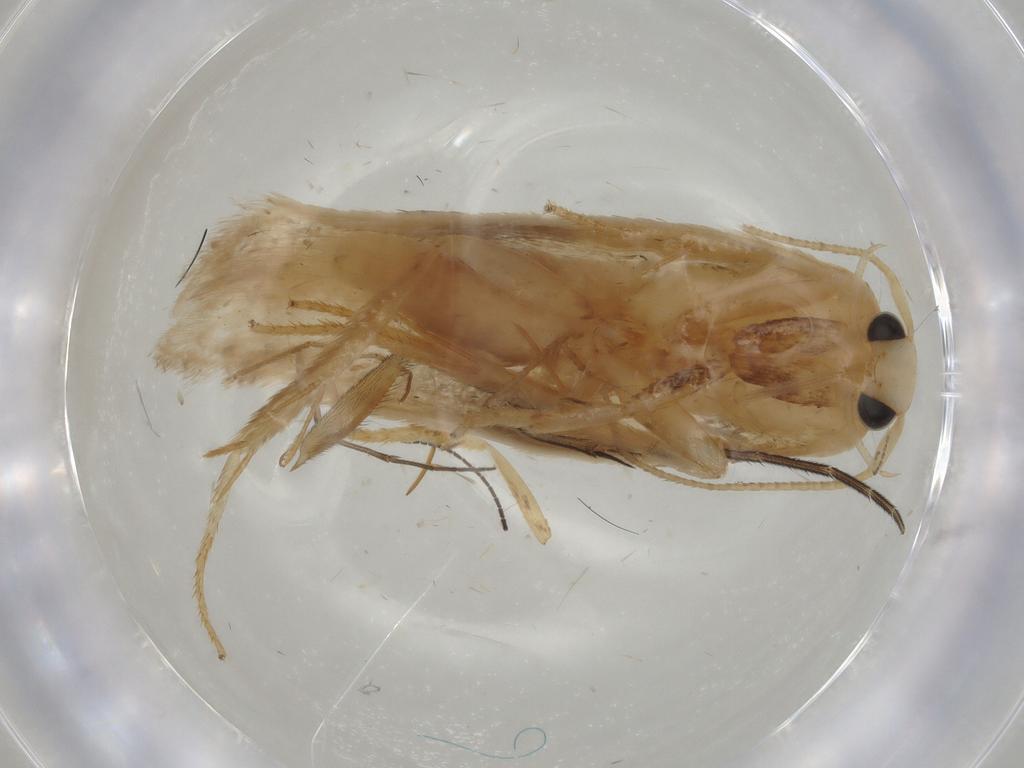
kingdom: Animalia
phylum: Arthropoda
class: Insecta
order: Lepidoptera
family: Geometridae
